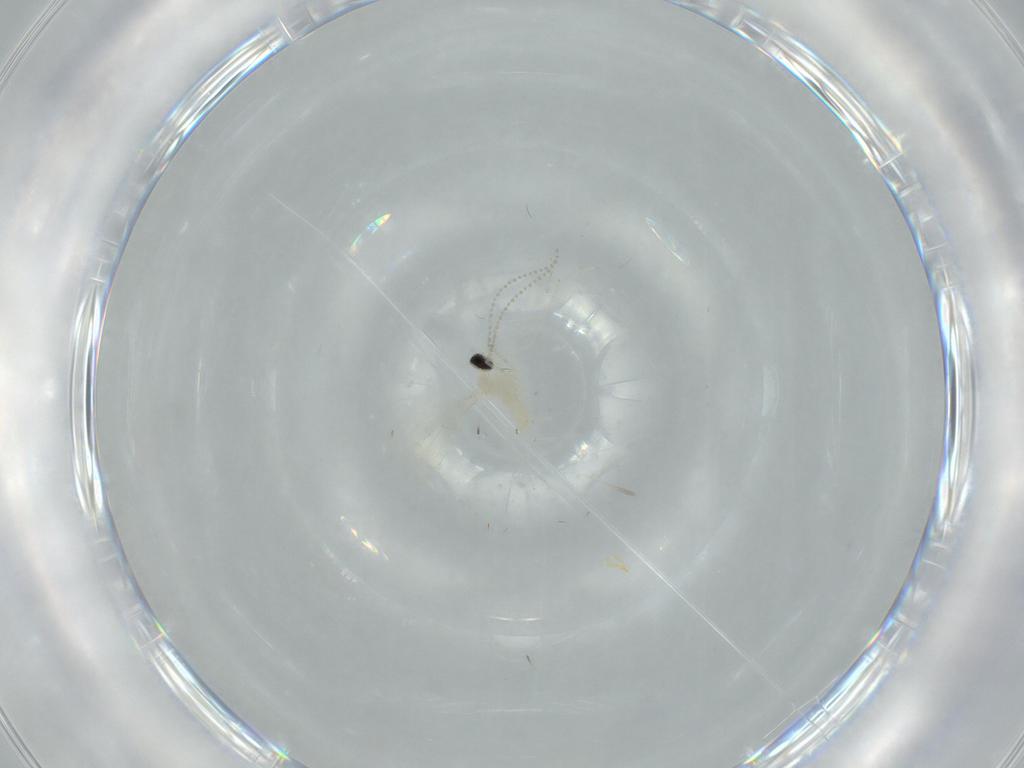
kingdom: Animalia
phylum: Arthropoda
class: Insecta
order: Diptera
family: Cecidomyiidae
